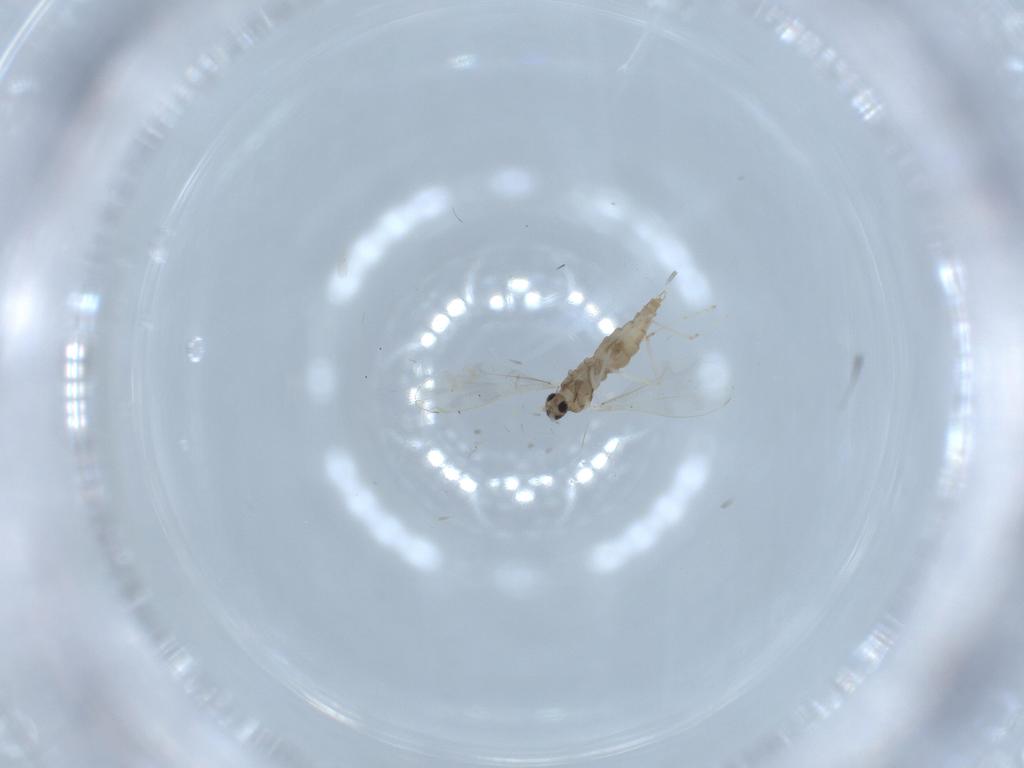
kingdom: Animalia
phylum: Arthropoda
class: Insecta
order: Diptera
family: Cecidomyiidae
